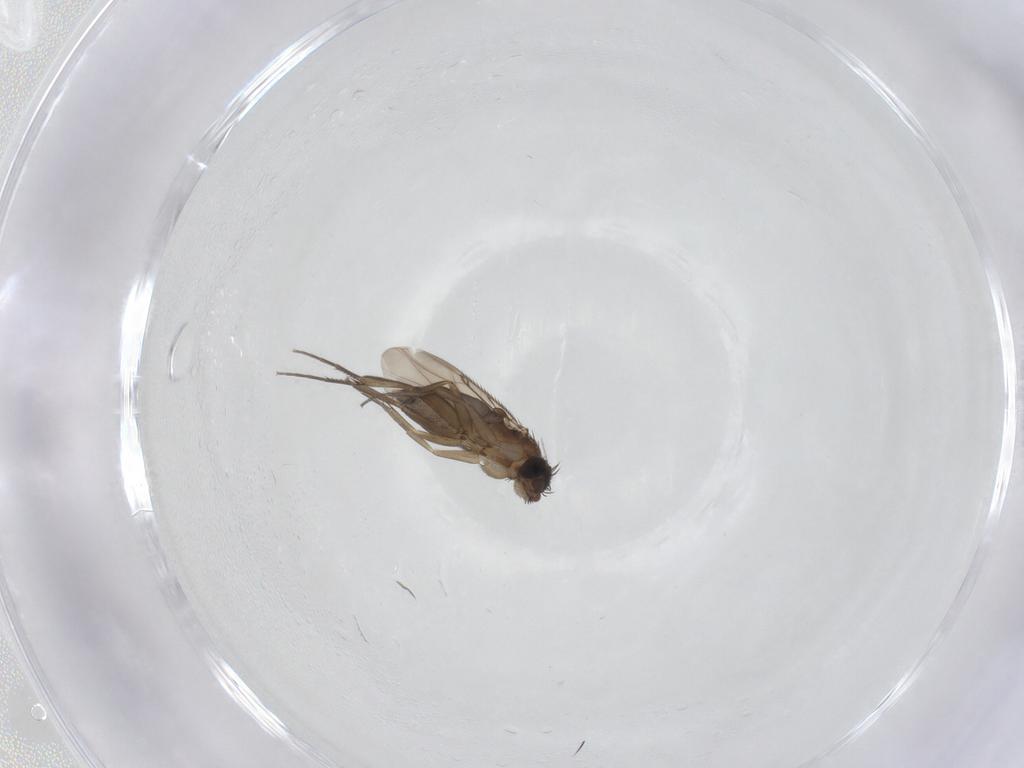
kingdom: Animalia
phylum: Arthropoda
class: Insecta
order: Diptera
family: Phoridae
